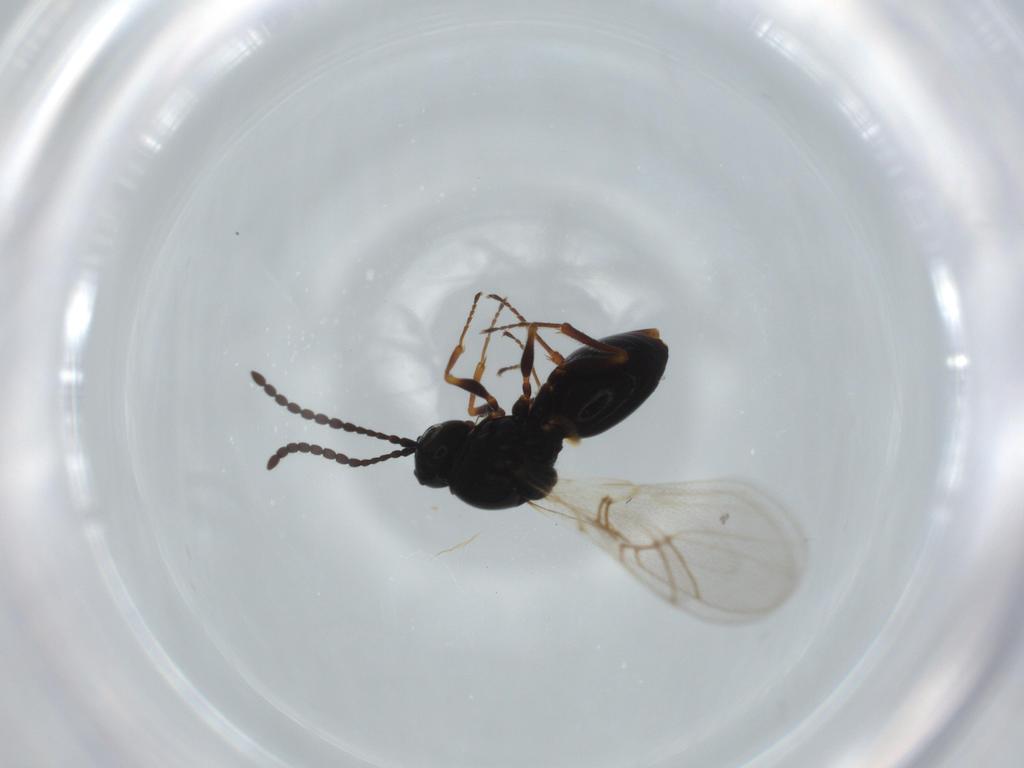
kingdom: Animalia
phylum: Arthropoda
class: Insecta
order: Hymenoptera
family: Figitidae
